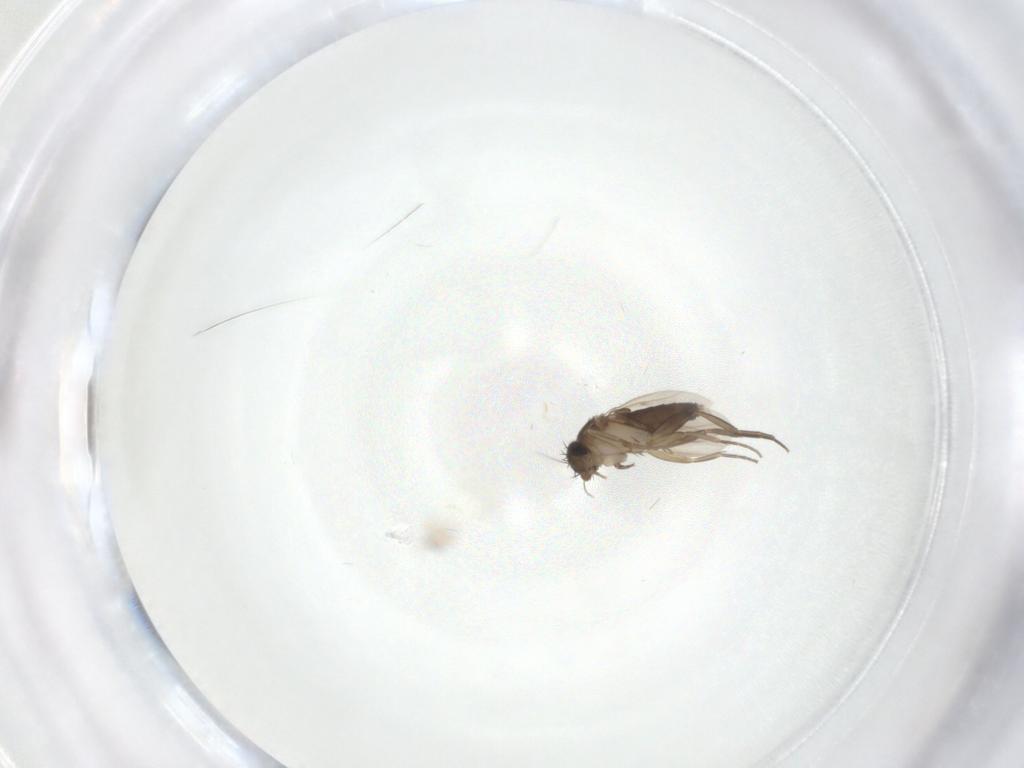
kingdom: Animalia
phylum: Arthropoda
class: Insecta
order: Diptera
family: Phoridae
